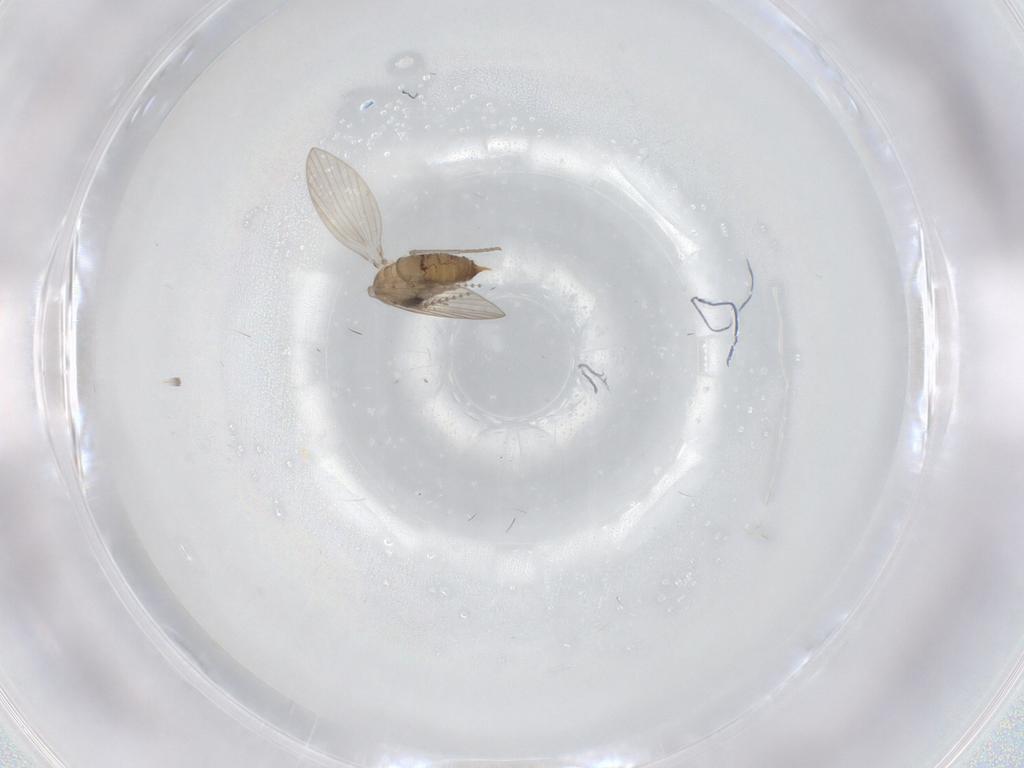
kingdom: Animalia
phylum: Arthropoda
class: Insecta
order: Diptera
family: Psychodidae
